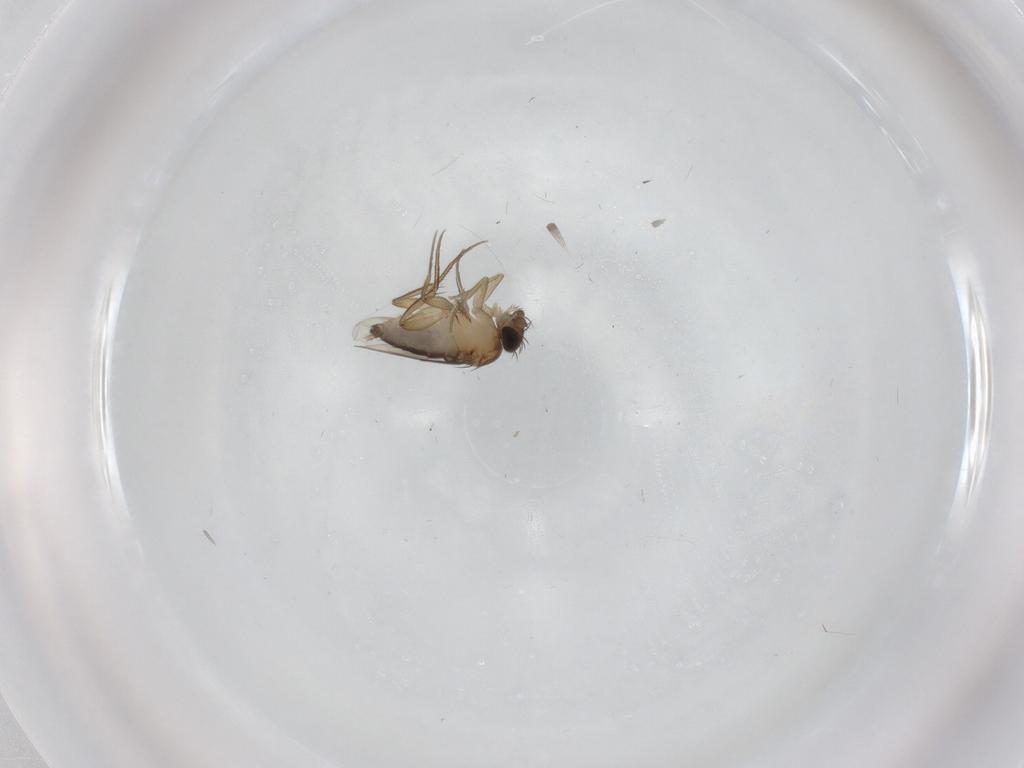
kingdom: Animalia
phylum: Arthropoda
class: Insecta
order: Diptera
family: Phoridae
